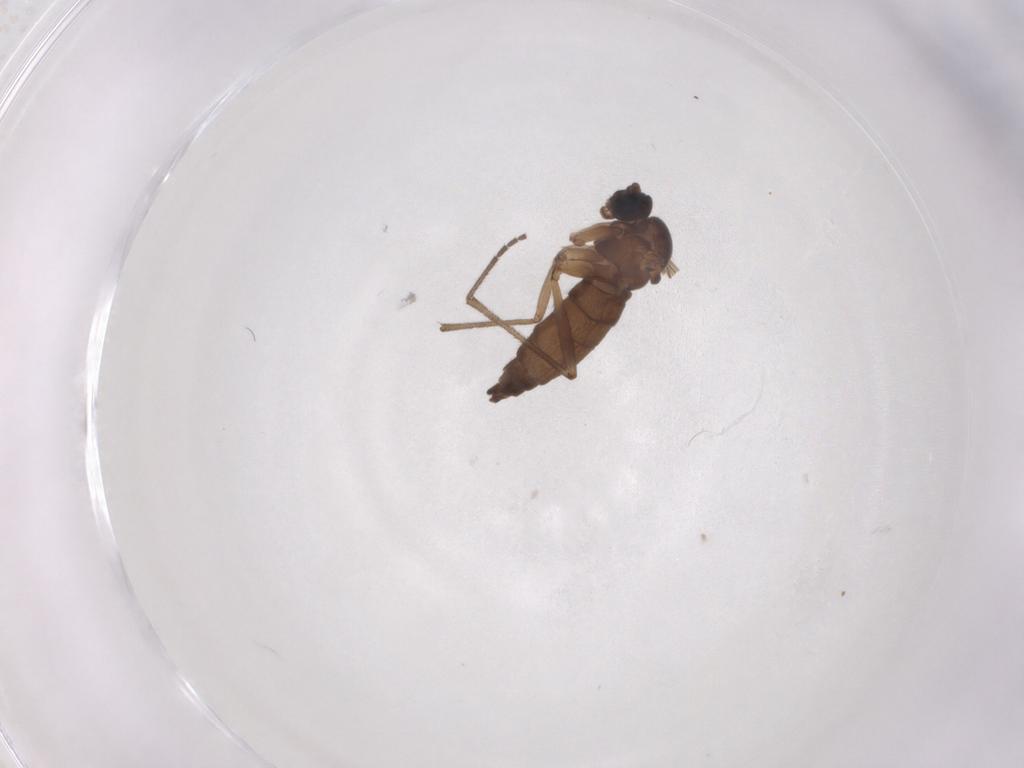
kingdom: Animalia
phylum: Arthropoda
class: Insecta
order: Diptera
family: Sciaridae
